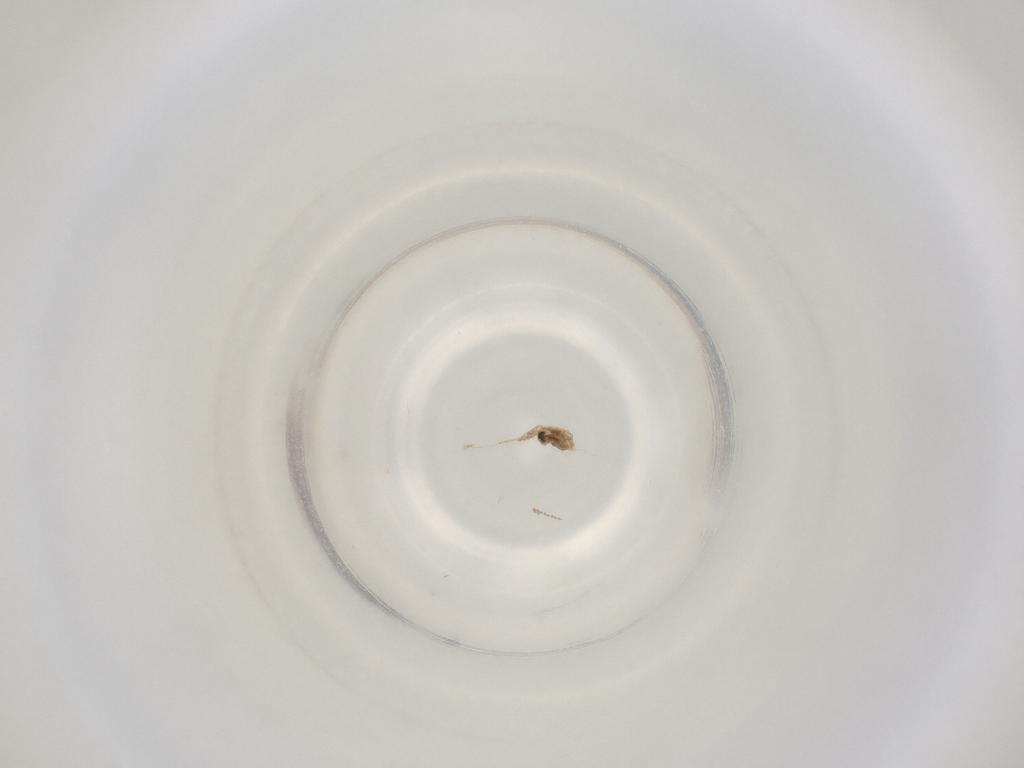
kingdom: Animalia
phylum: Arthropoda
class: Insecta
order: Diptera
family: Cecidomyiidae
